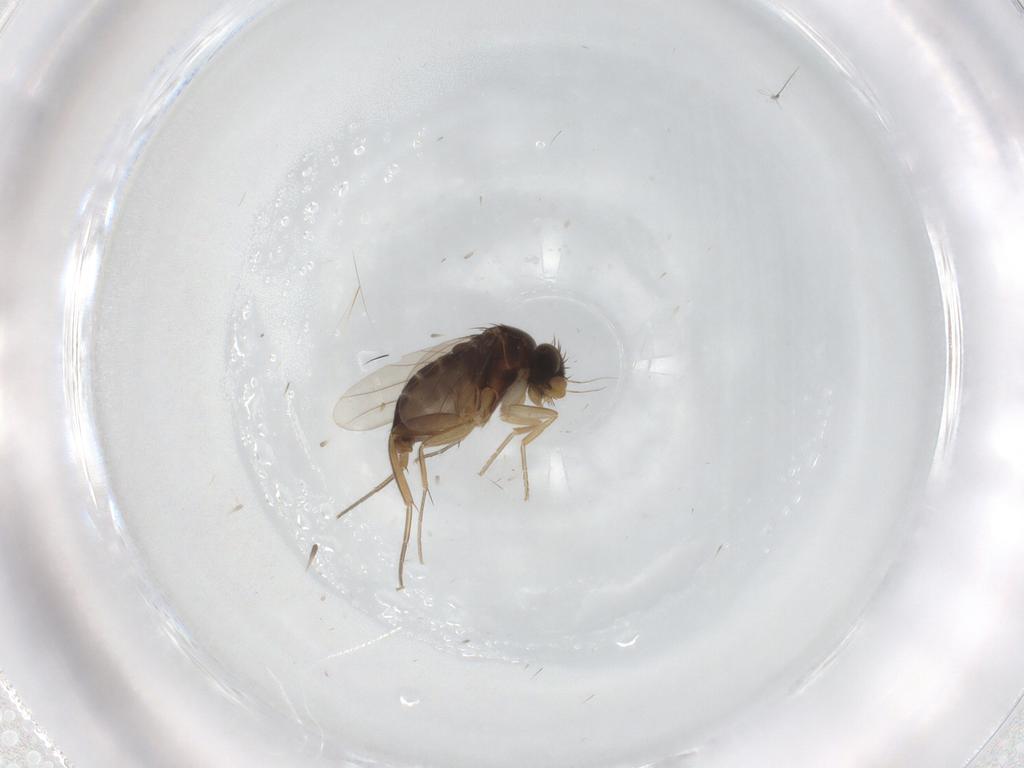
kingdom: Animalia
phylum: Arthropoda
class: Insecta
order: Diptera
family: Phoridae
